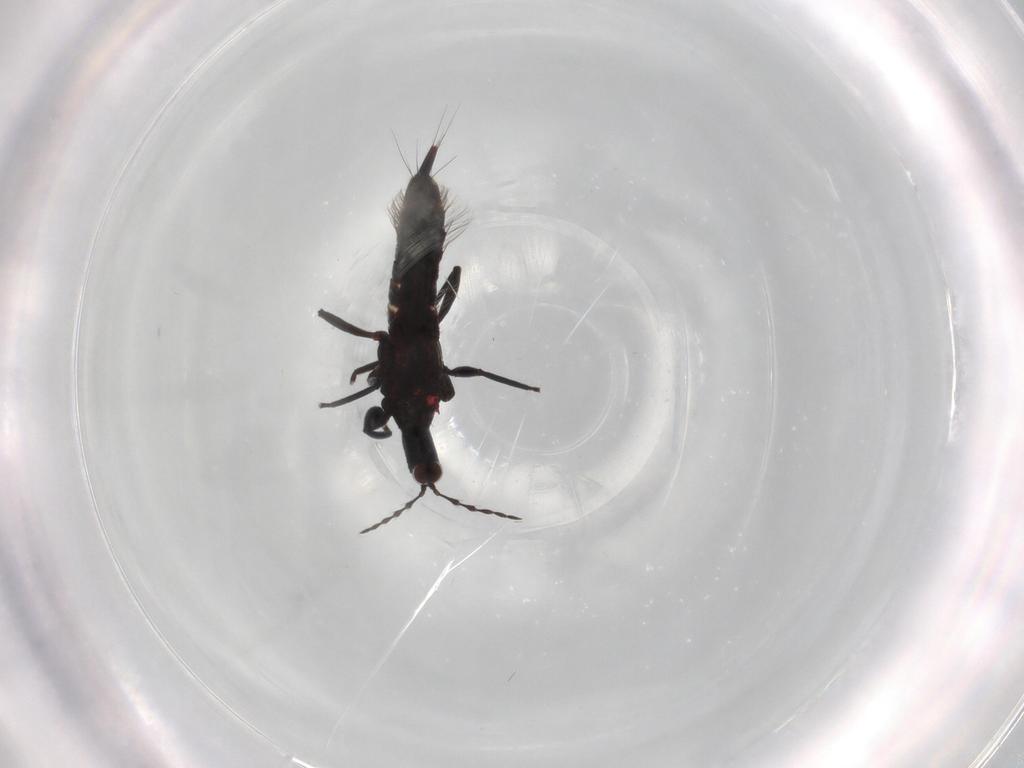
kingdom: Animalia
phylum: Arthropoda
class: Insecta
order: Thysanoptera
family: Phlaeothripidae
